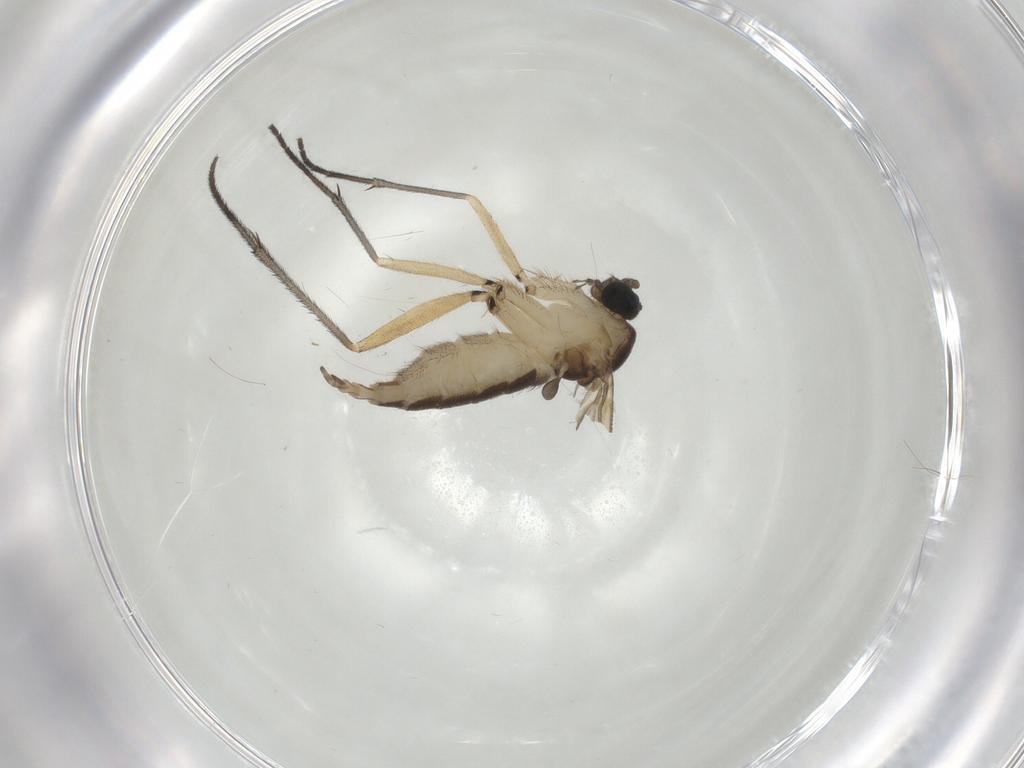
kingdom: Animalia
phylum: Arthropoda
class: Insecta
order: Diptera
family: Sciaridae
